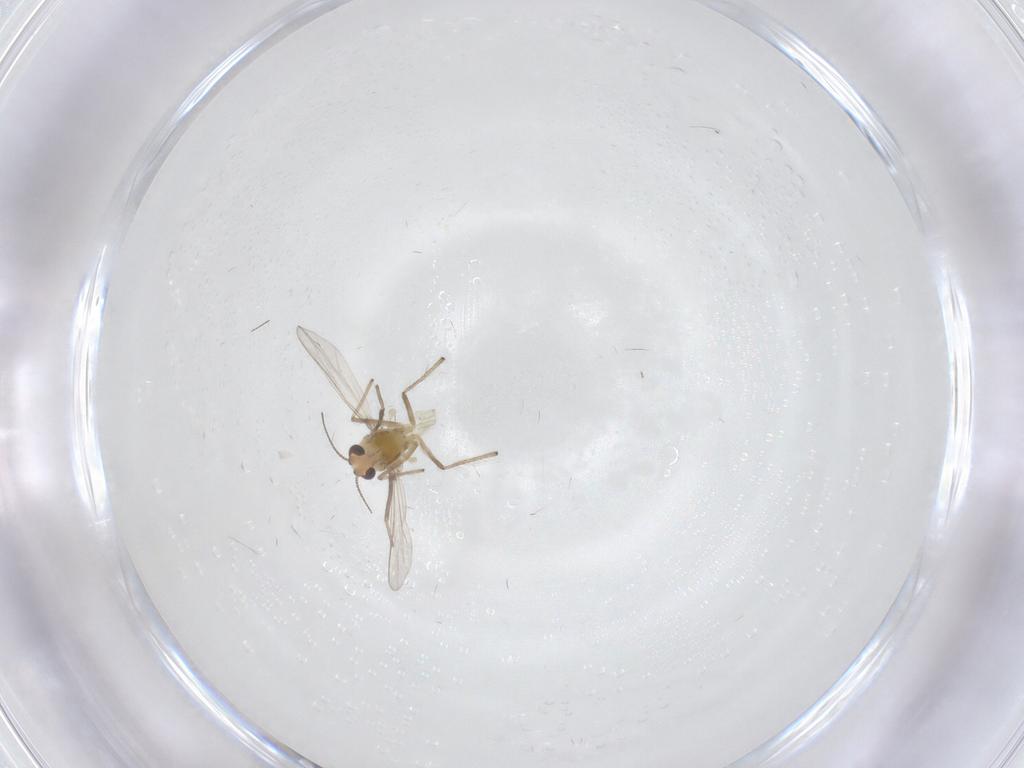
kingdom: Animalia
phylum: Arthropoda
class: Insecta
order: Diptera
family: Chironomidae
